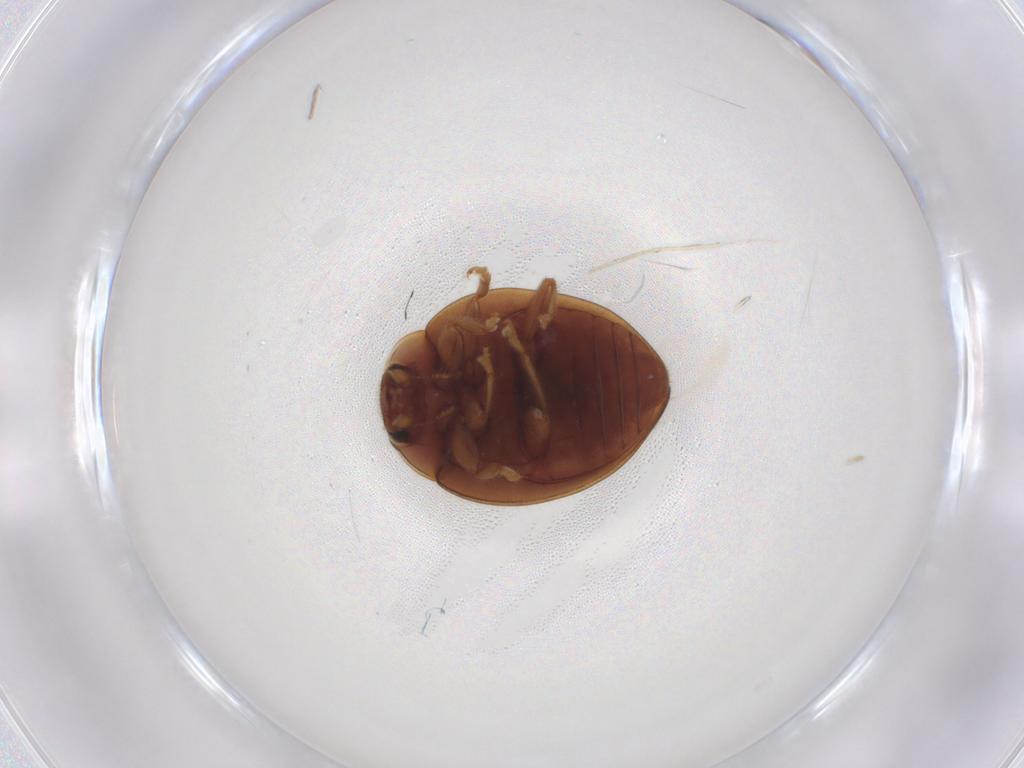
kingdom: Animalia
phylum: Arthropoda
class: Insecta
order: Coleoptera
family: Coccinellidae
